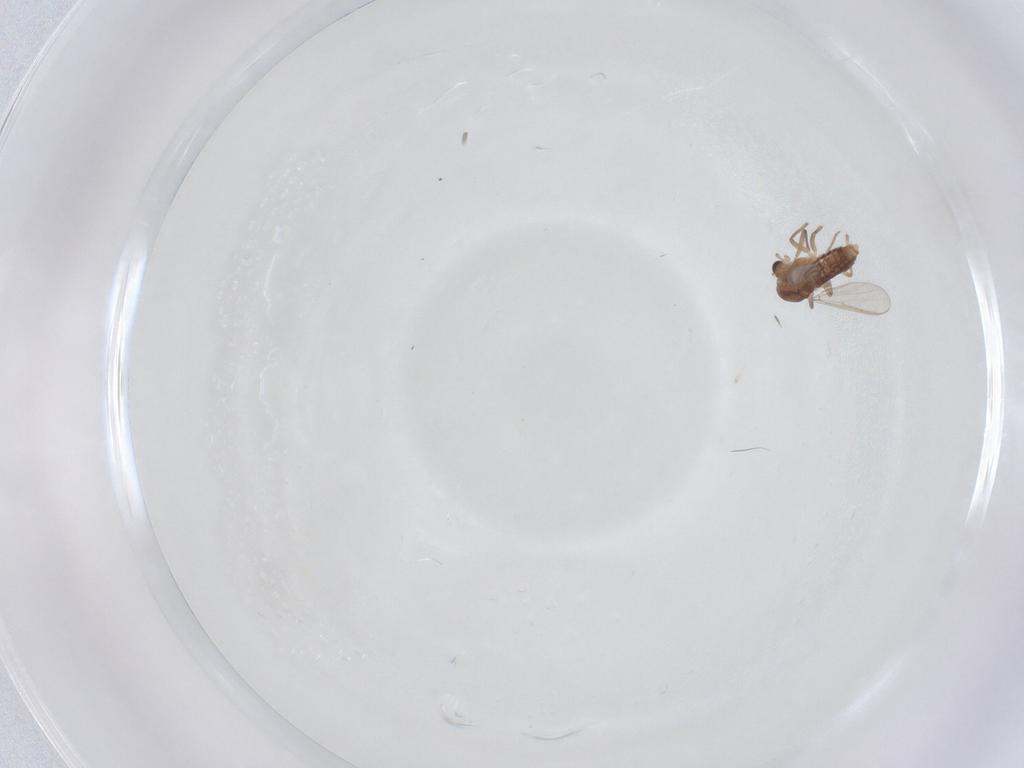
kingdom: Animalia
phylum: Arthropoda
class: Insecta
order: Diptera
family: Chironomidae
